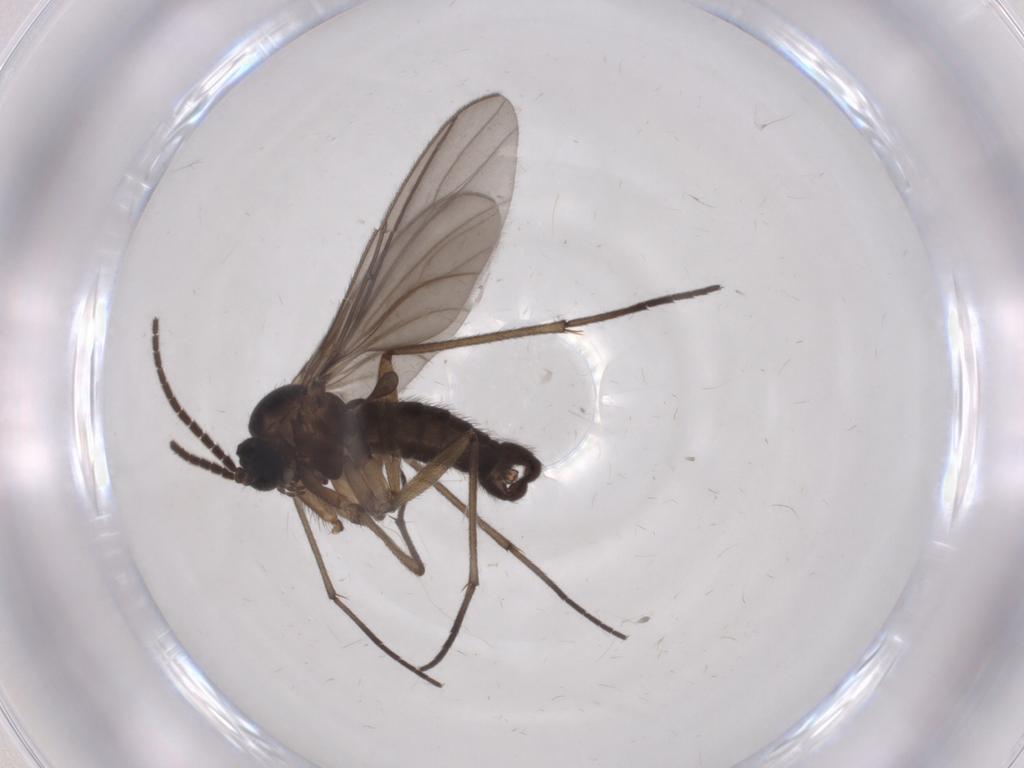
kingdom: Animalia
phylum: Arthropoda
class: Insecta
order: Diptera
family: Sciaridae
